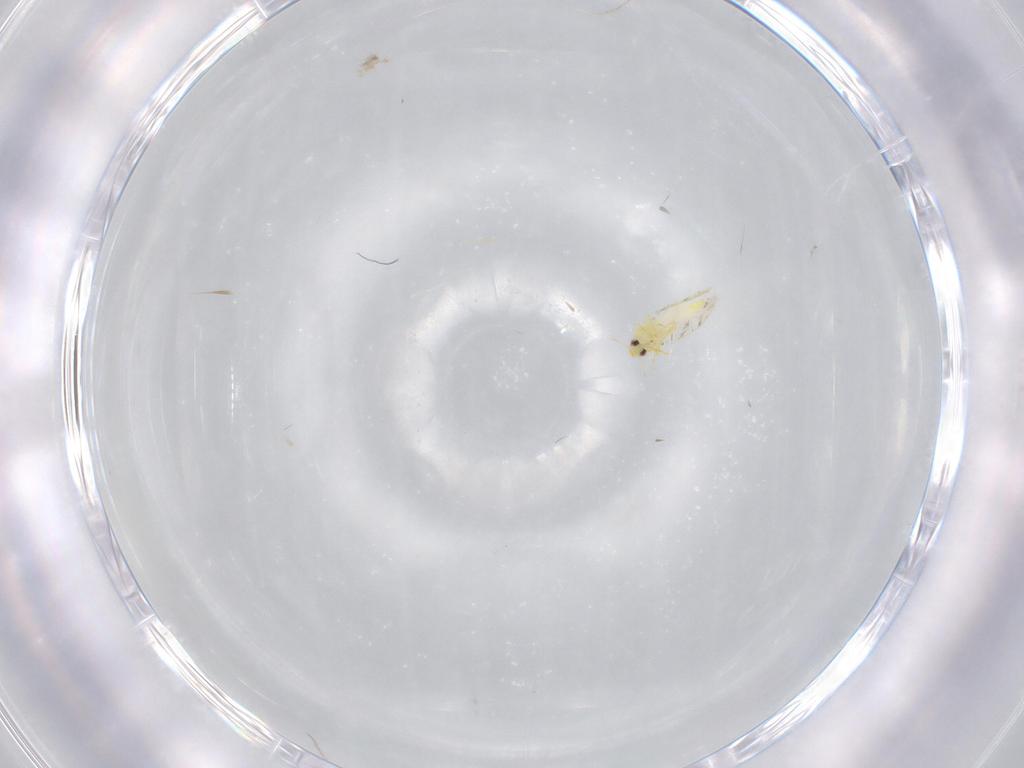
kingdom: Animalia
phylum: Arthropoda
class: Insecta
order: Hemiptera
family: Aleyrodidae
